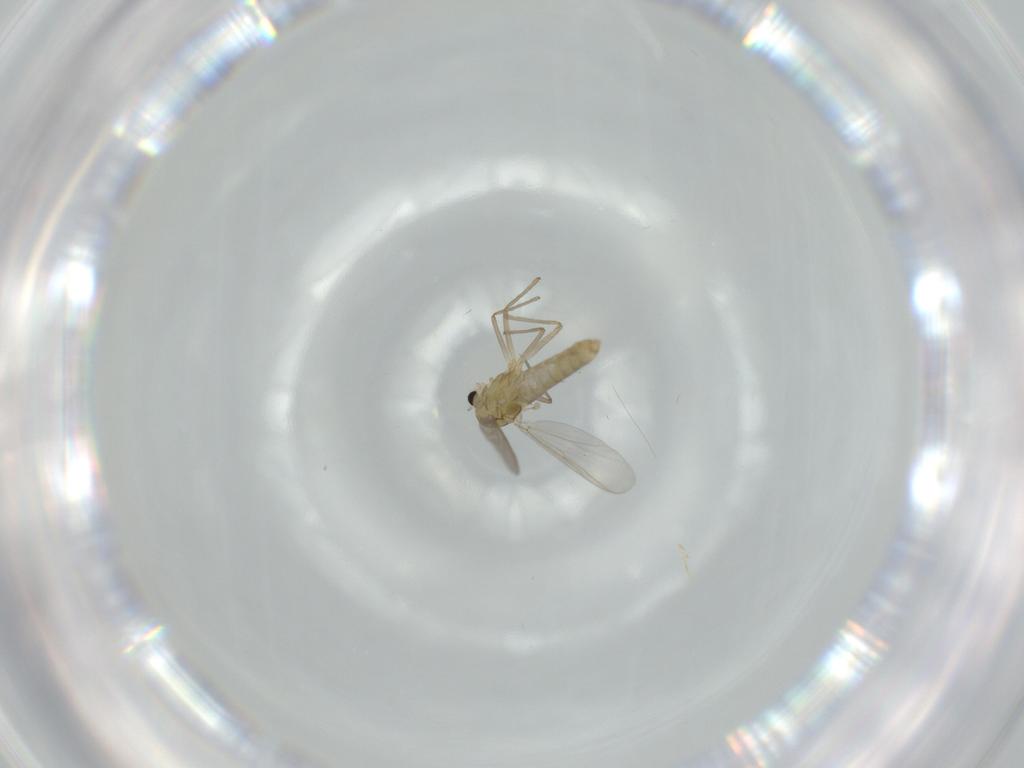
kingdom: Animalia
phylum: Arthropoda
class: Insecta
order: Diptera
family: Chironomidae
